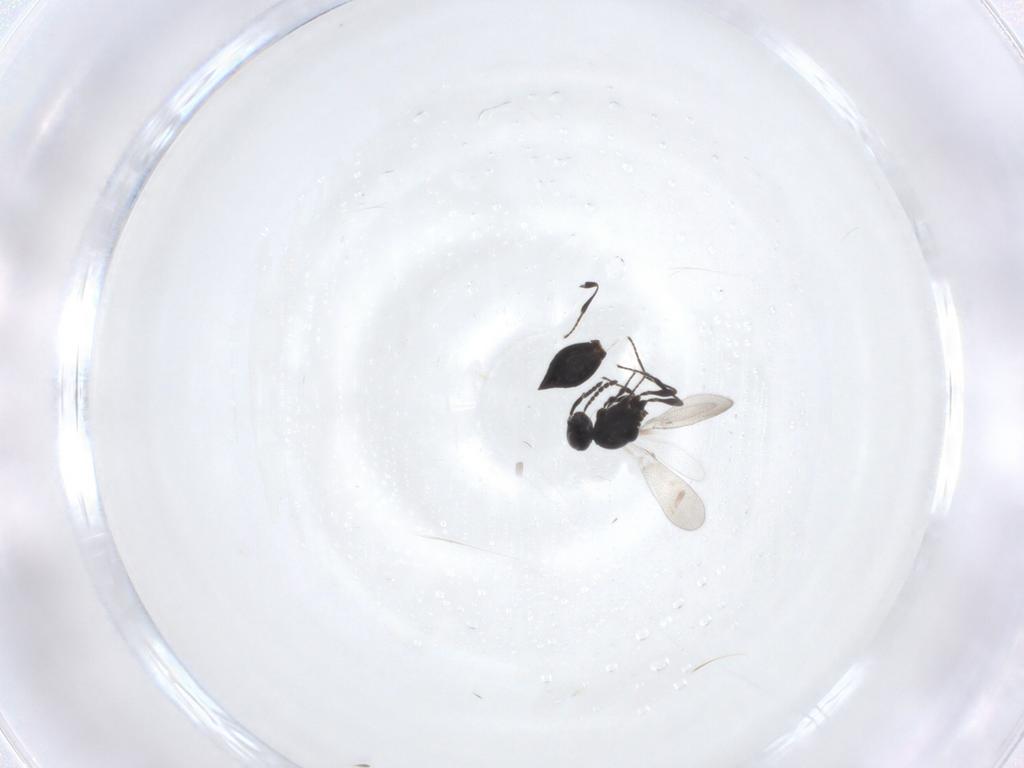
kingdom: Animalia
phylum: Arthropoda
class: Insecta
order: Hymenoptera
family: Platygastridae
